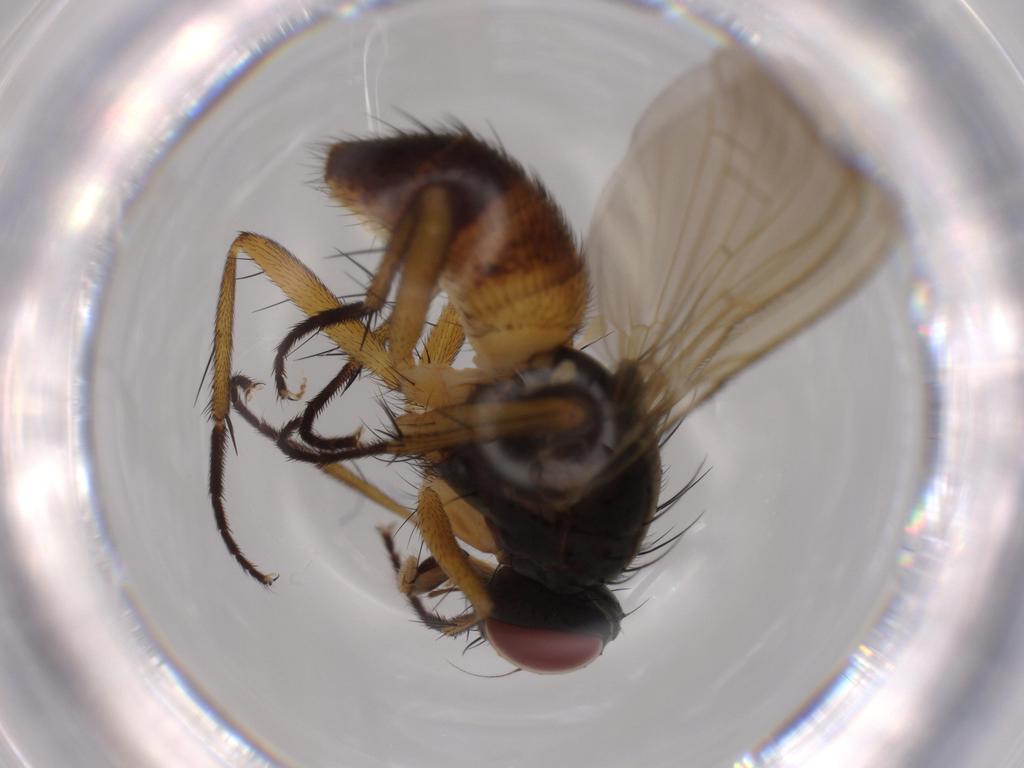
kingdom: Animalia
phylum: Arthropoda
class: Insecta
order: Diptera
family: Muscidae
